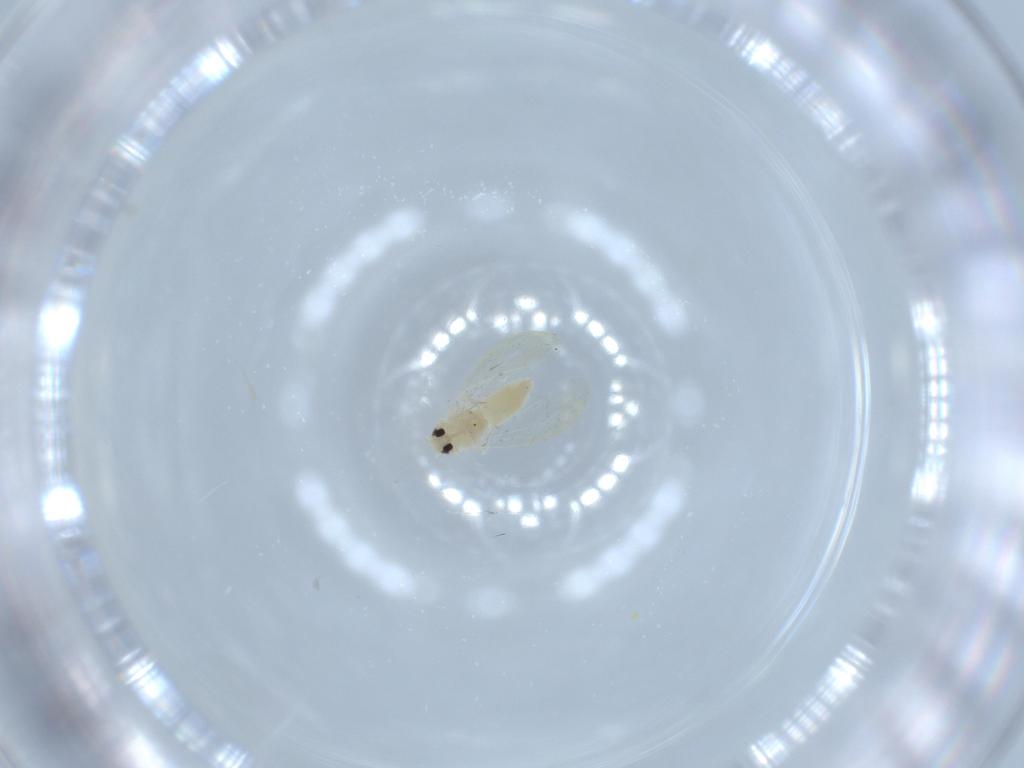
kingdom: Animalia
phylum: Arthropoda
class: Insecta
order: Hemiptera
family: Aleyrodidae
